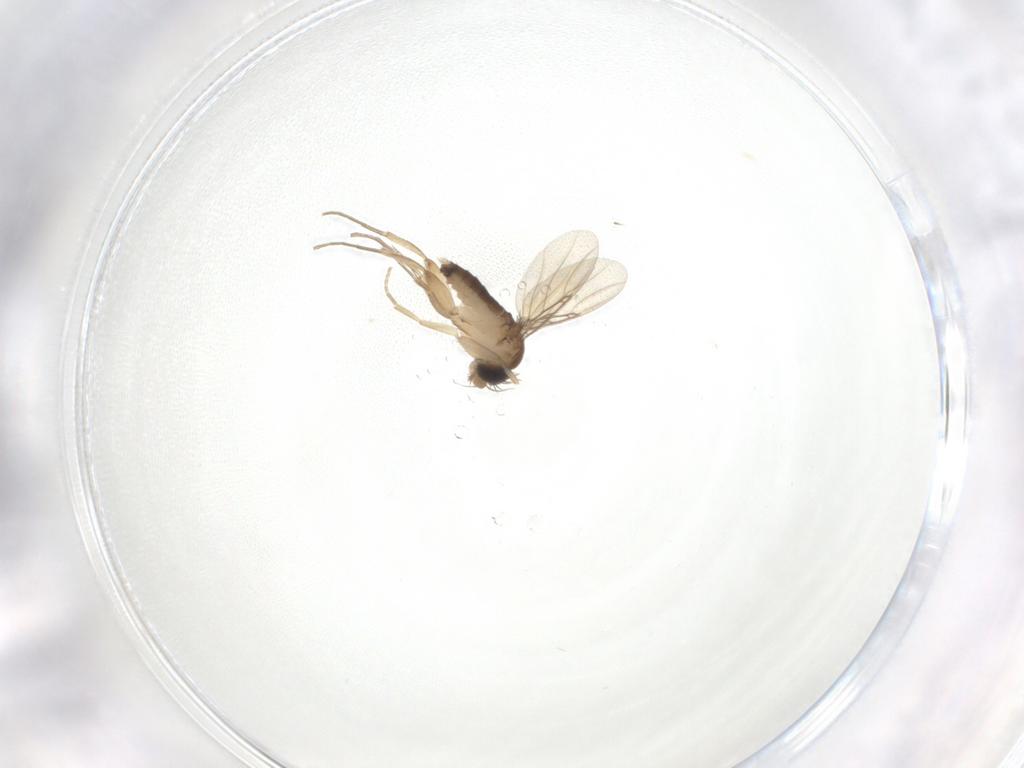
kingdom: Animalia
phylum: Arthropoda
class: Insecta
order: Diptera
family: Phoridae
